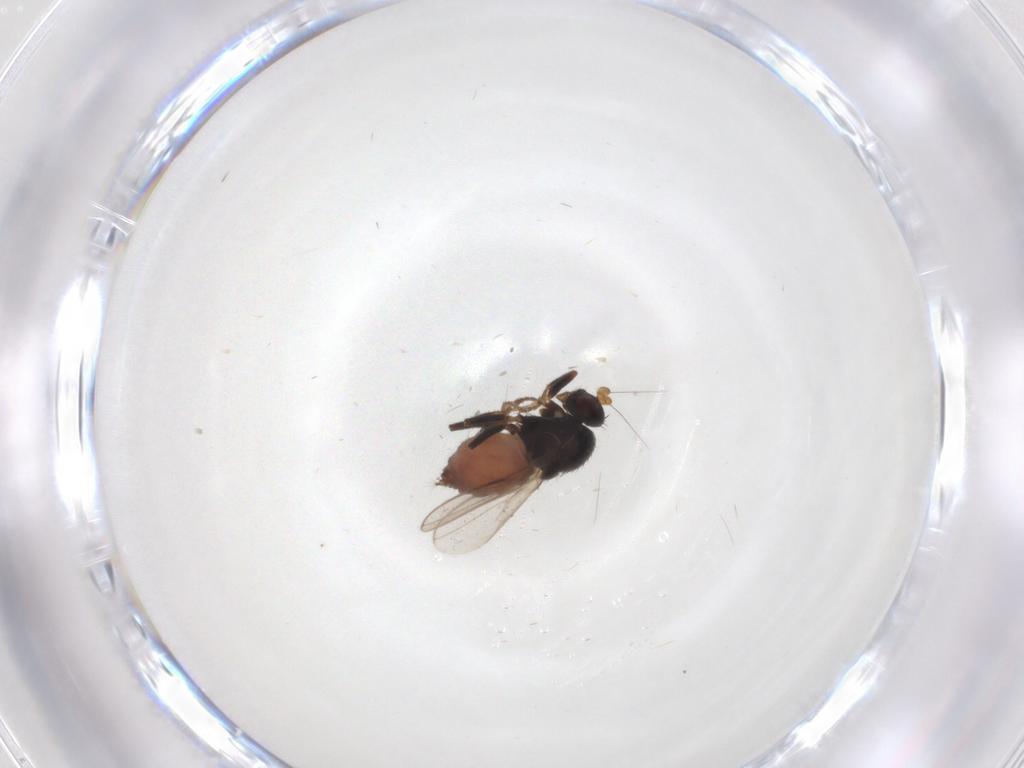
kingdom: Animalia
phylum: Arthropoda
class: Insecta
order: Diptera
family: Sphaeroceridae
